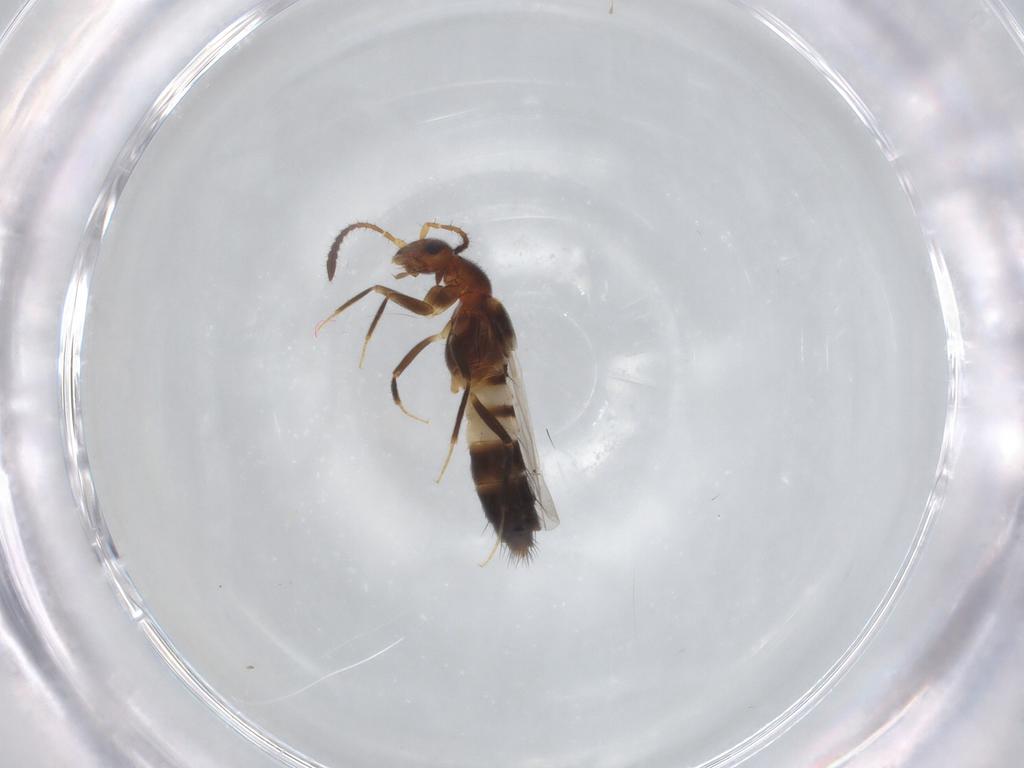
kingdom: Animalia
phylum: Arthropoda
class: Insecta
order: Coleoptera
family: Staphylinidae
